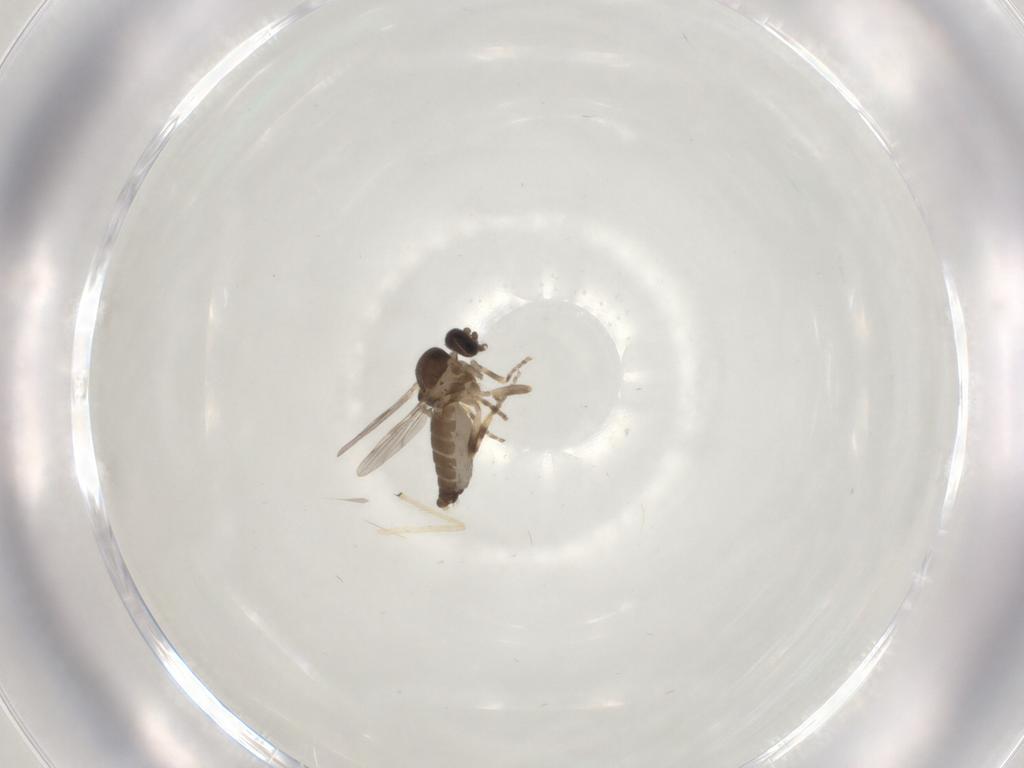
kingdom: Animalia
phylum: Arthropoda
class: Insecta
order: Diptera
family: Ceratopogonidae
